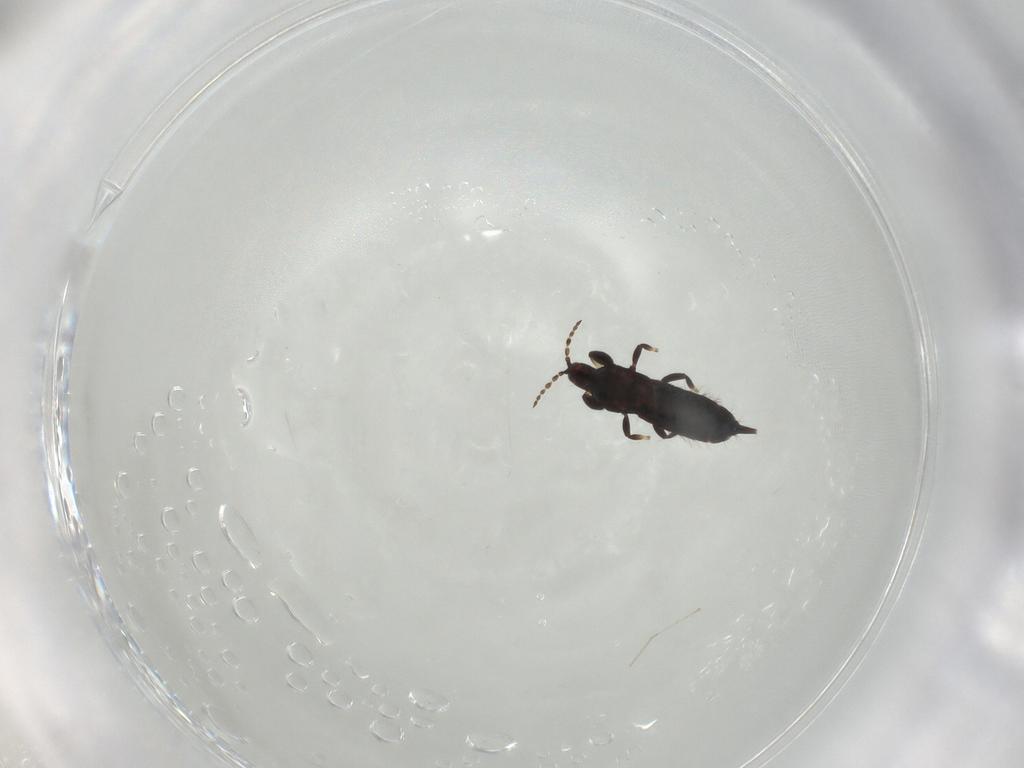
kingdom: Animalia
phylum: Arthropoda
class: Insecta
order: Thysanoptera
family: Phlaeothripidae
